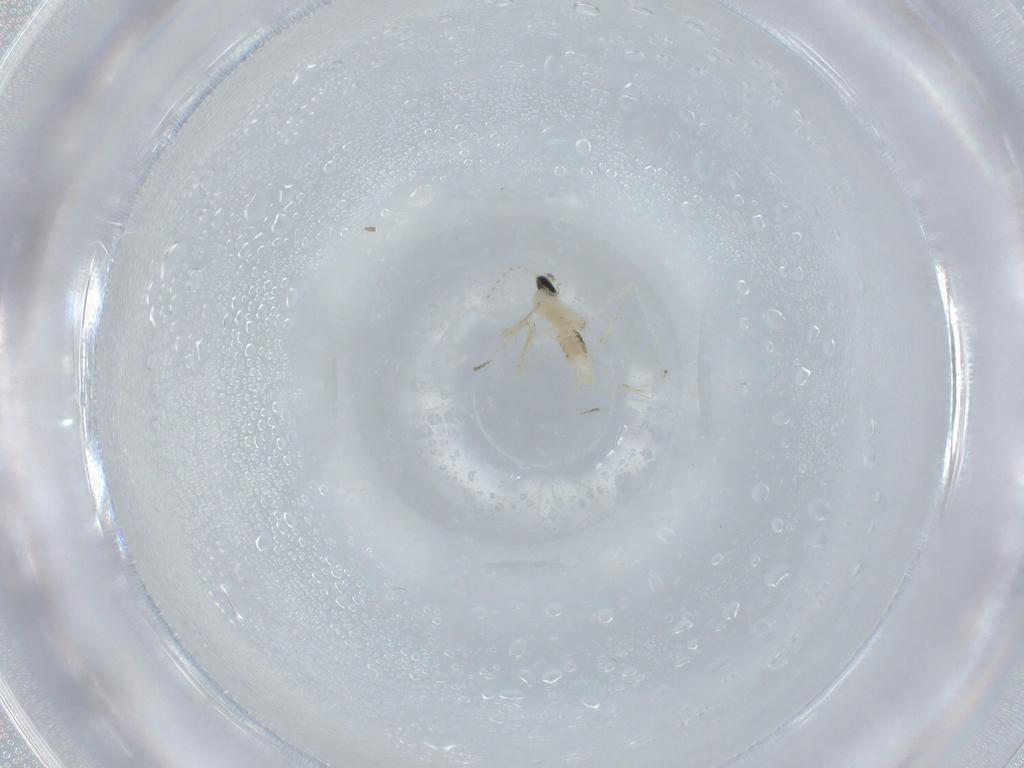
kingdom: Animalia
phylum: Arthropoda
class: Insecta
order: Diptera
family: Cecidomyiidae
